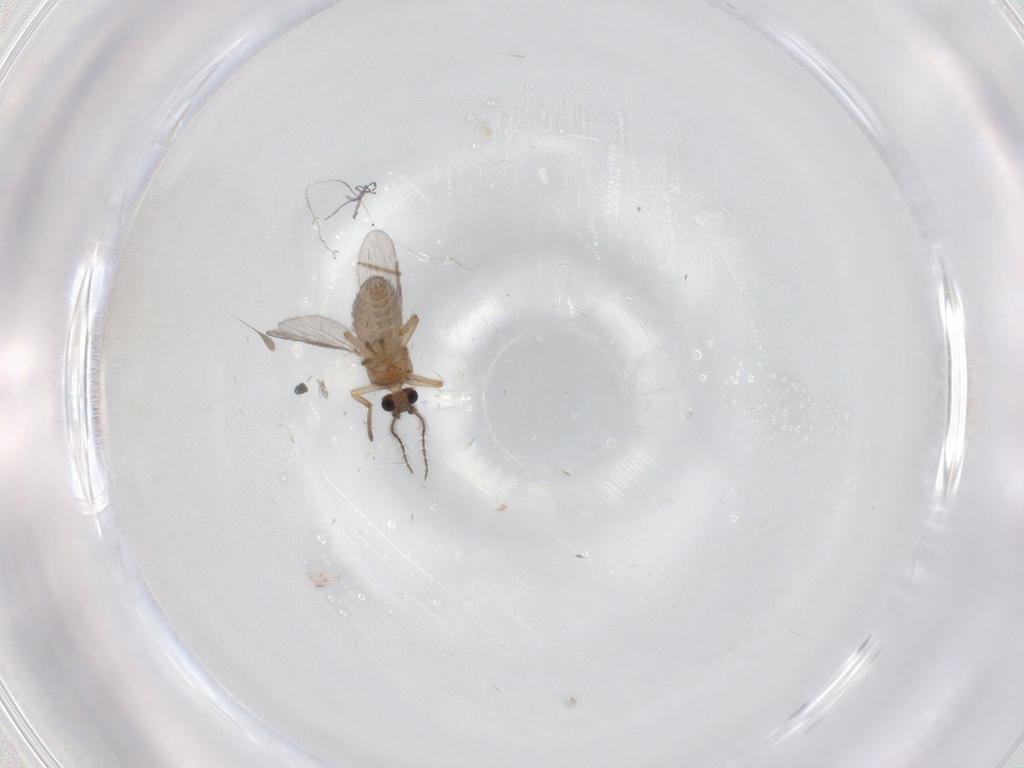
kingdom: Animalia
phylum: Arthropoda
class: Insecta
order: Diptera
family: Ceratopogonidae
